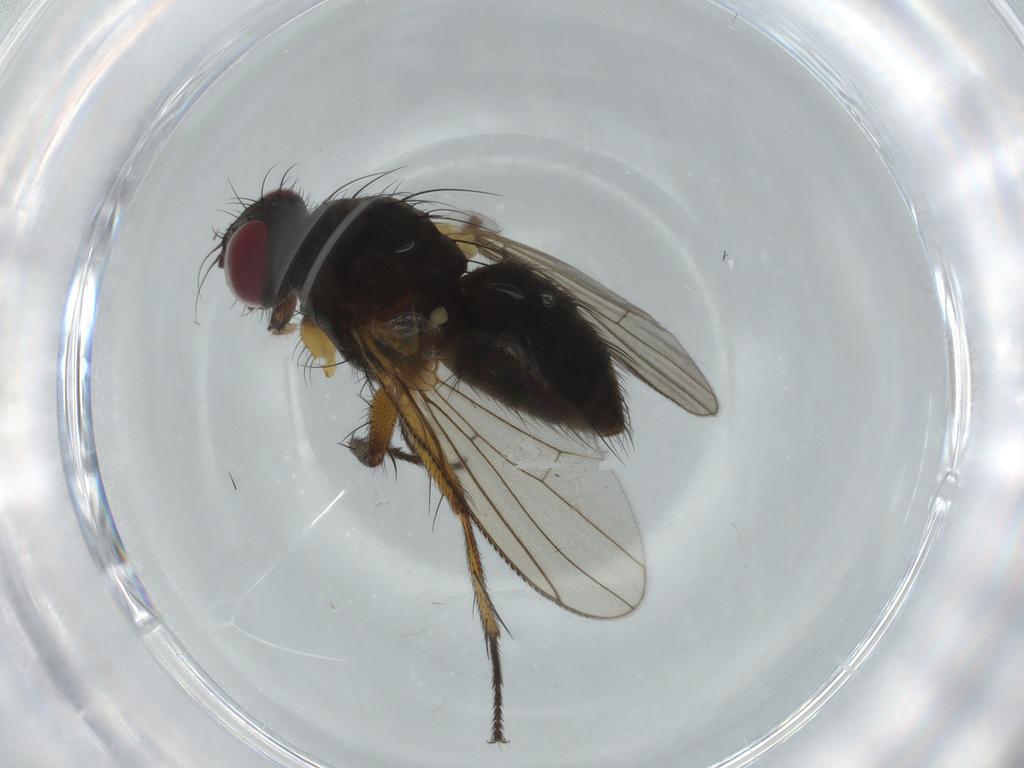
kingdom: Animalia
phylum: Arthropoda
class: Insecta
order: Diptera
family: Muscidae
